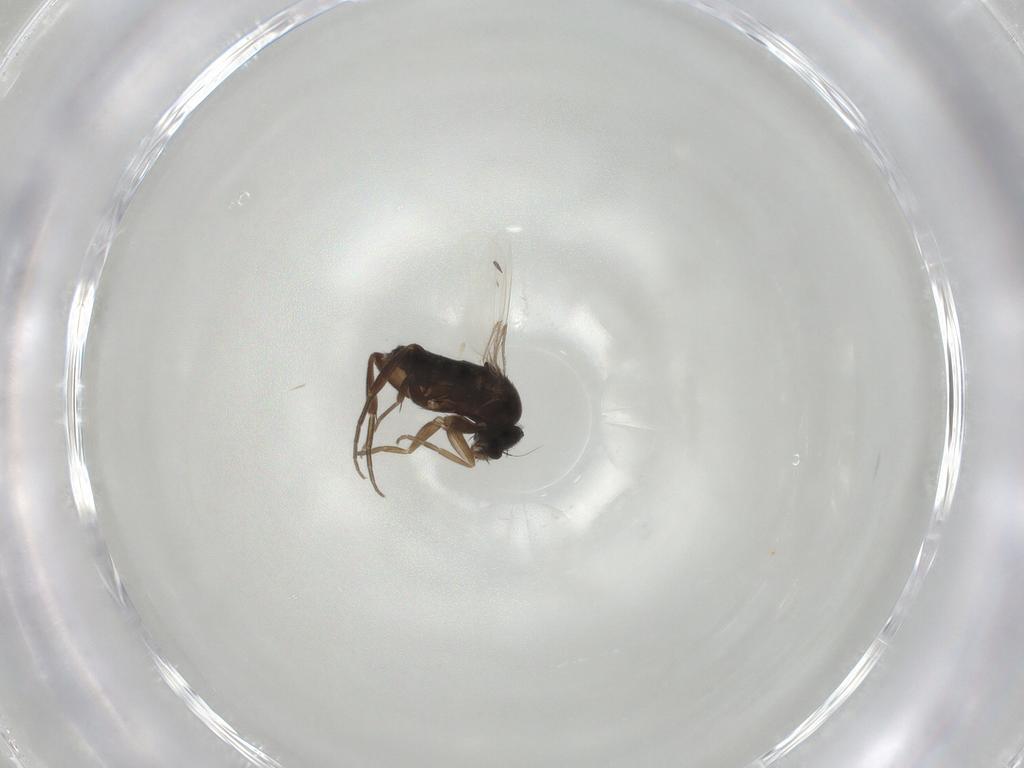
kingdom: Animalia
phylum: Arthropoda
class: Insecta
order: Diptera
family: Phoridae
